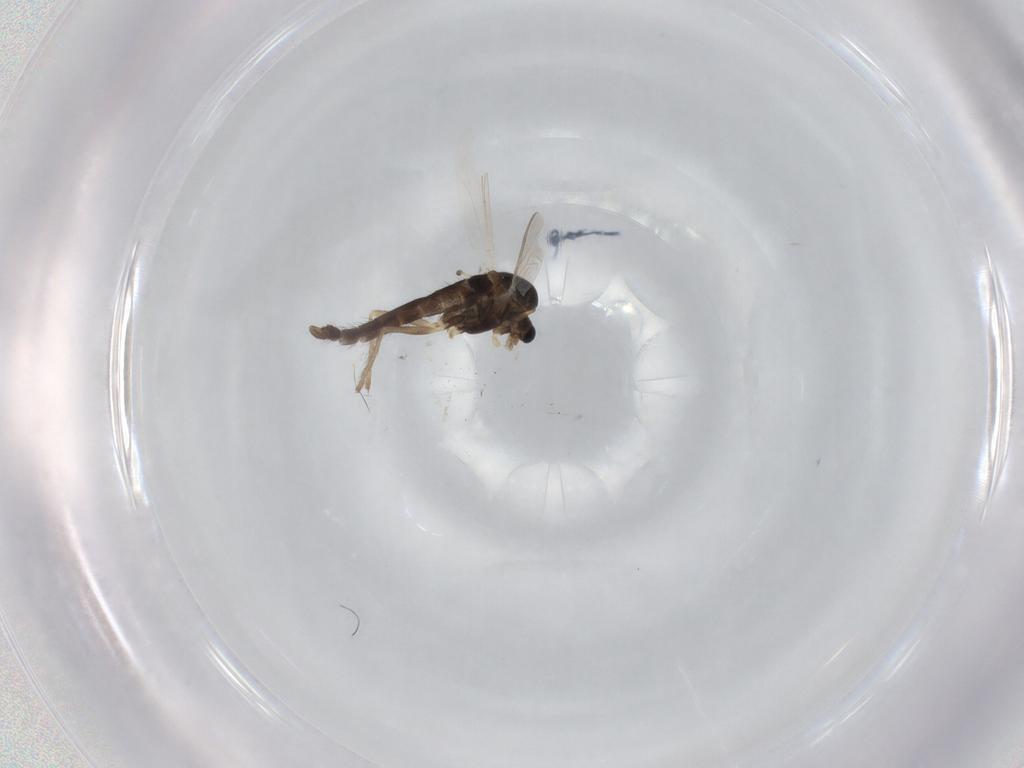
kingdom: Animalia
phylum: Arthropoda
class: Insecta
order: Diptera
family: Chironomidae
